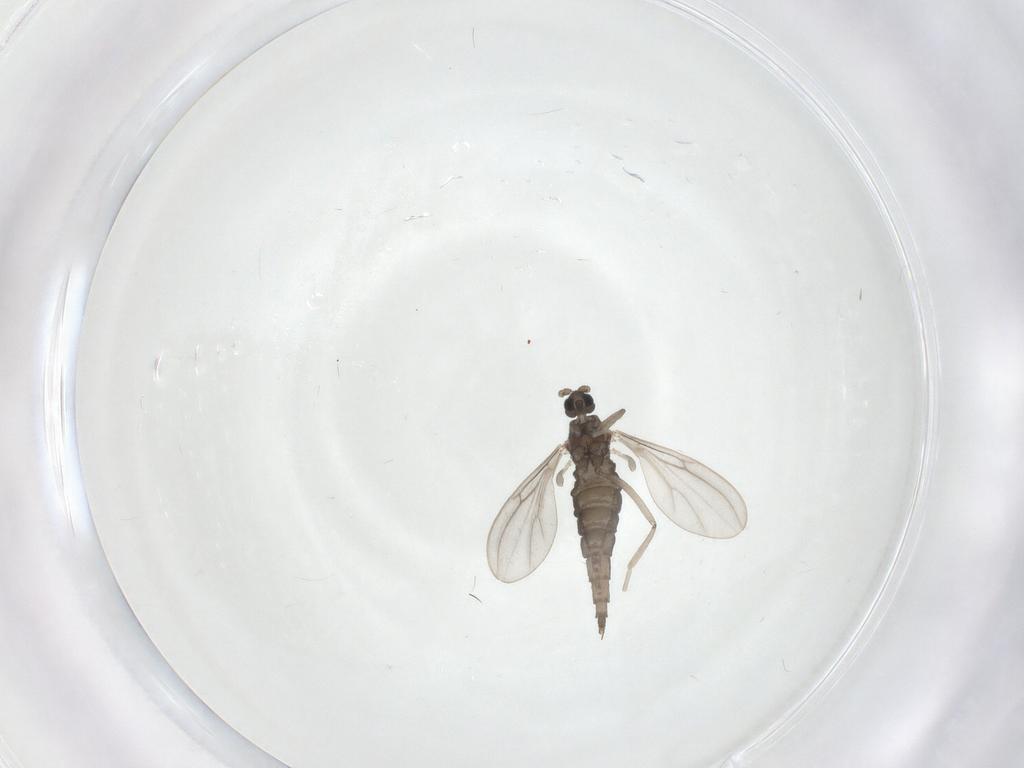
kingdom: Animalia
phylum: Arthropoda
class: Insecta
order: Diptera
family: Cecidomyiidae
